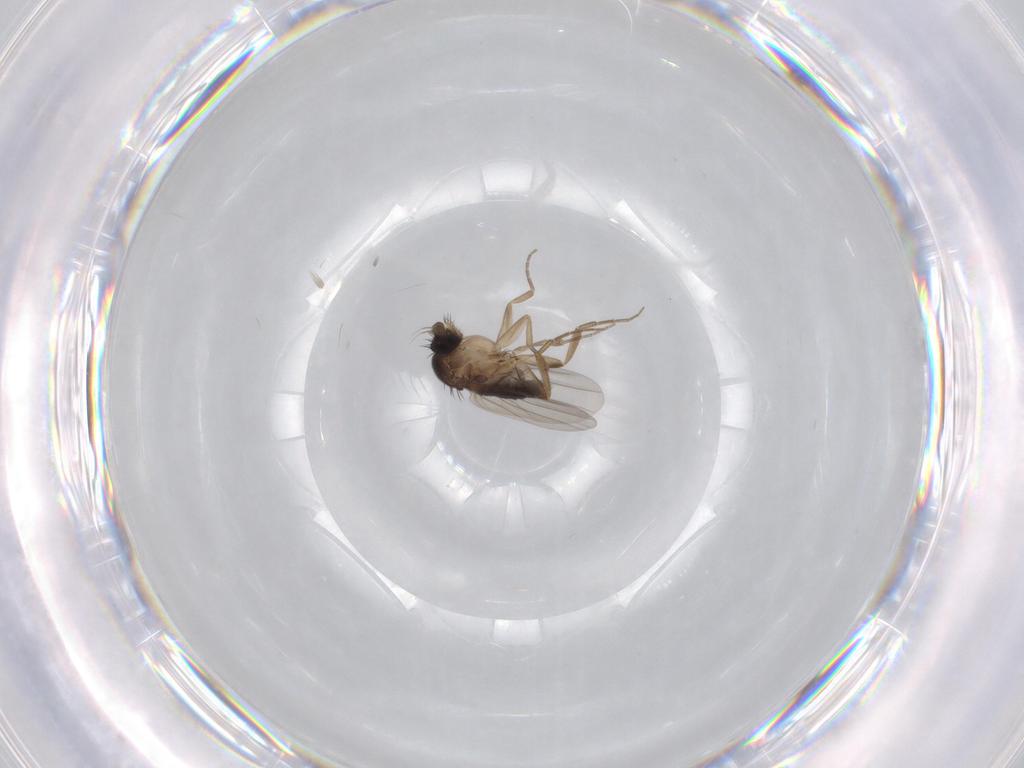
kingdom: Animalia
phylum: Arthropoda
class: Insecta
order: Diptera
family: Phoridae
